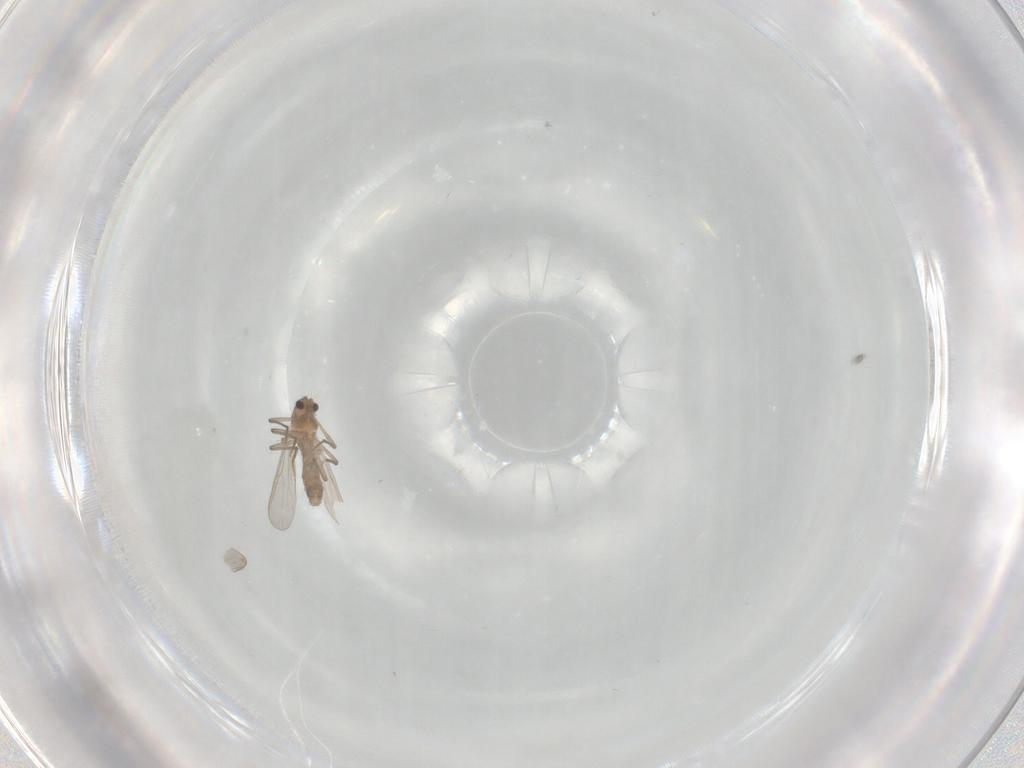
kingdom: Animalia
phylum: Arthropoda
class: Insecta
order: Diptera
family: Chironomidae
